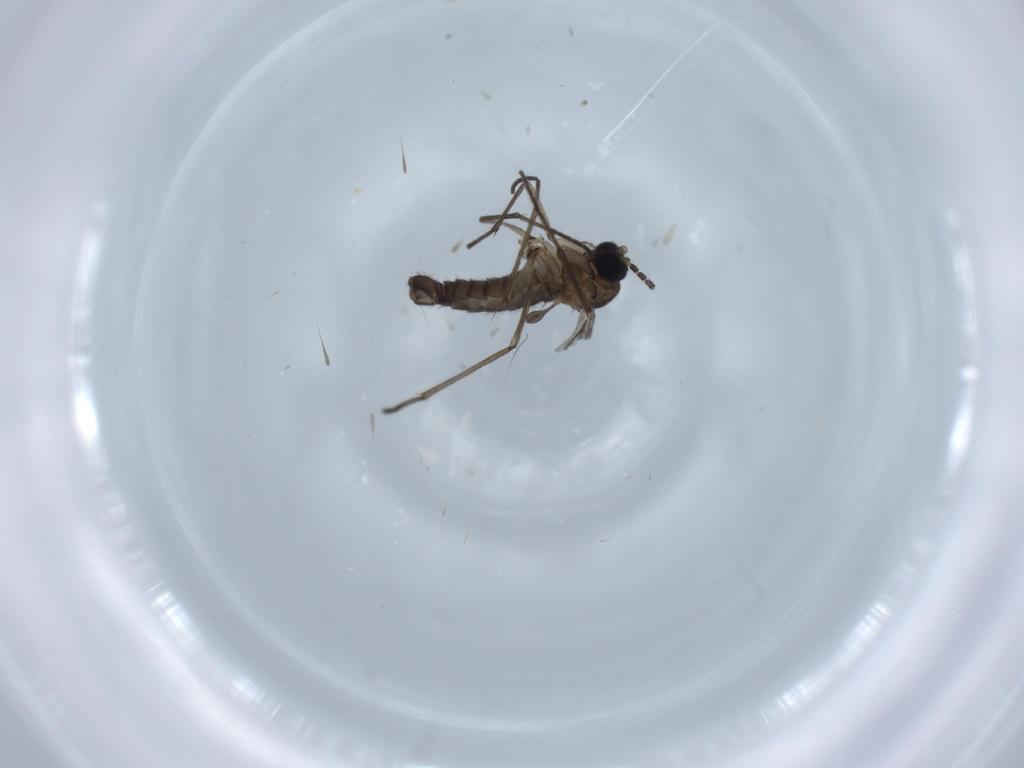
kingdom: Animalia
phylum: Arthropoda
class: Insecta
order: Diptera
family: Sciaridae
